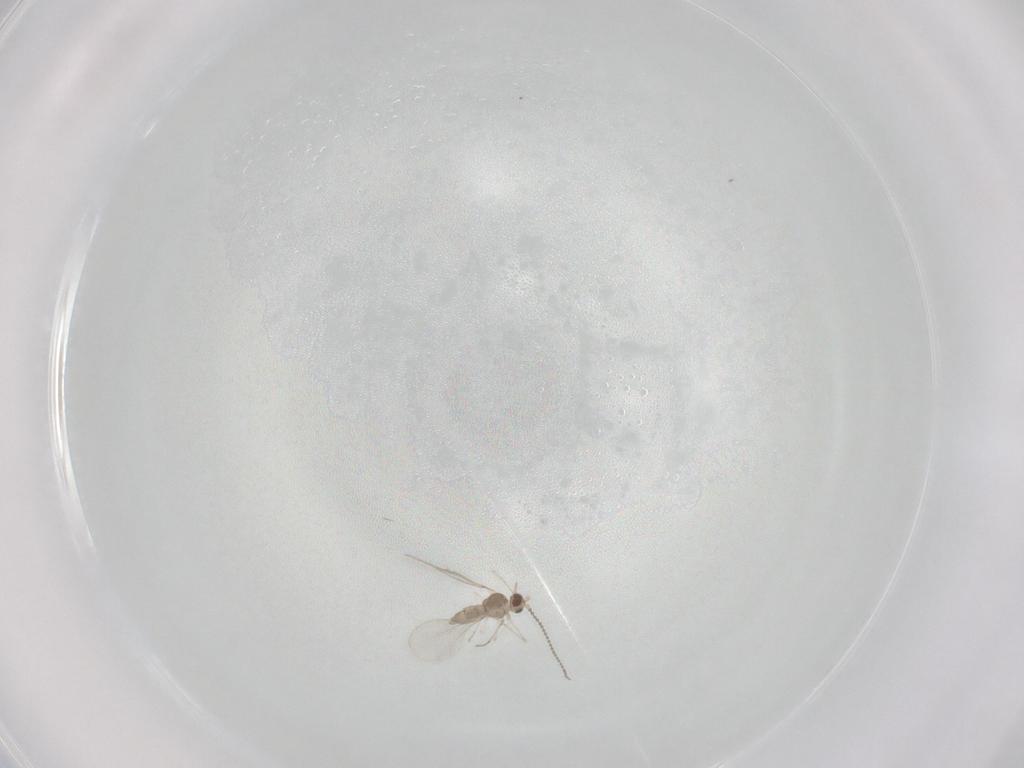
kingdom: Animalia
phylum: Arthropoda
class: Insecta
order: Diptera
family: Cecidomyiidae
